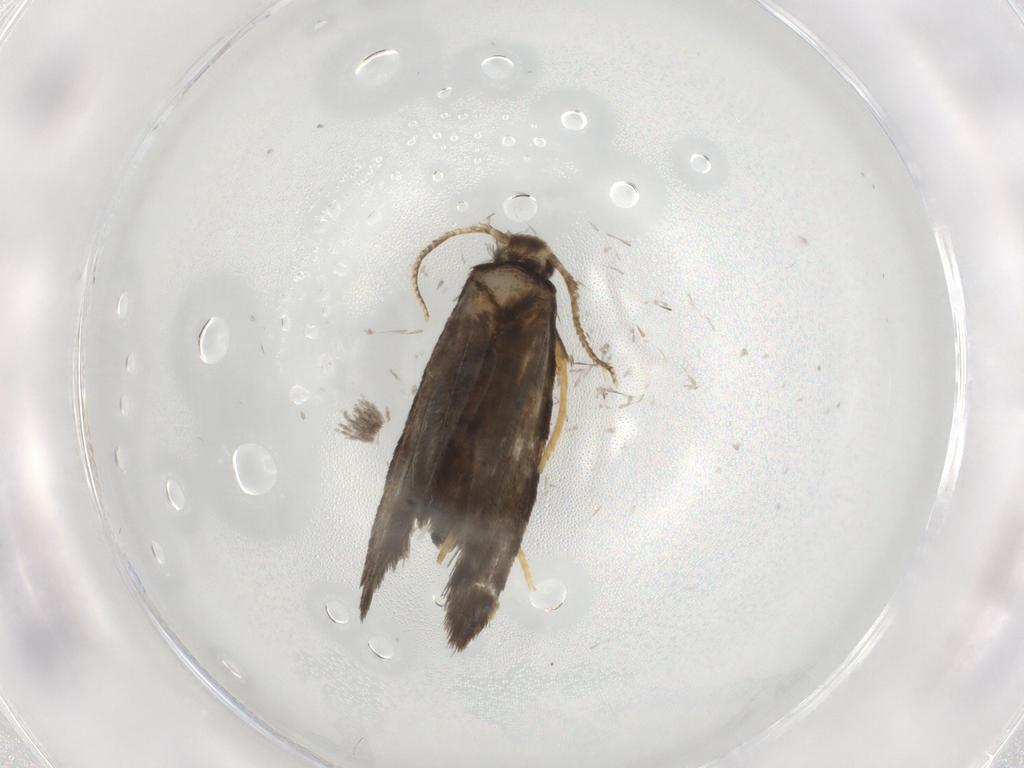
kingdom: Animalia
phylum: Arthropoda
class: Insecta
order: Lepidoptera
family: Psychidae
